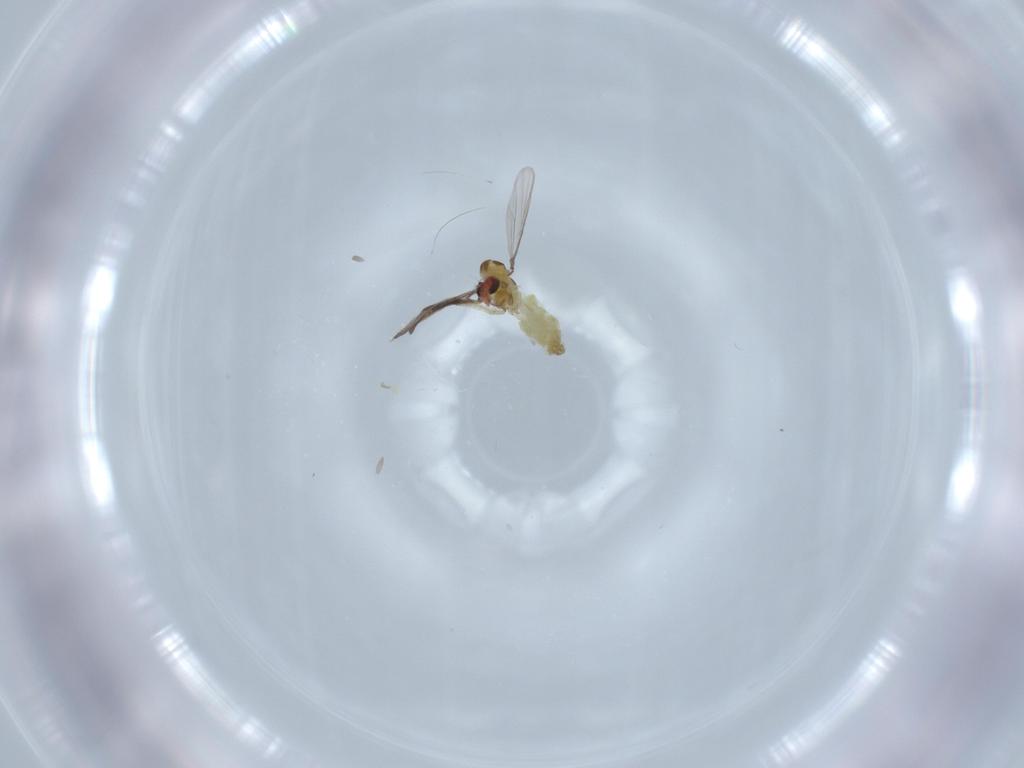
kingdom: Animalia
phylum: Arthropoda
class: Insecta
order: Diptera
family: Chironomidae
